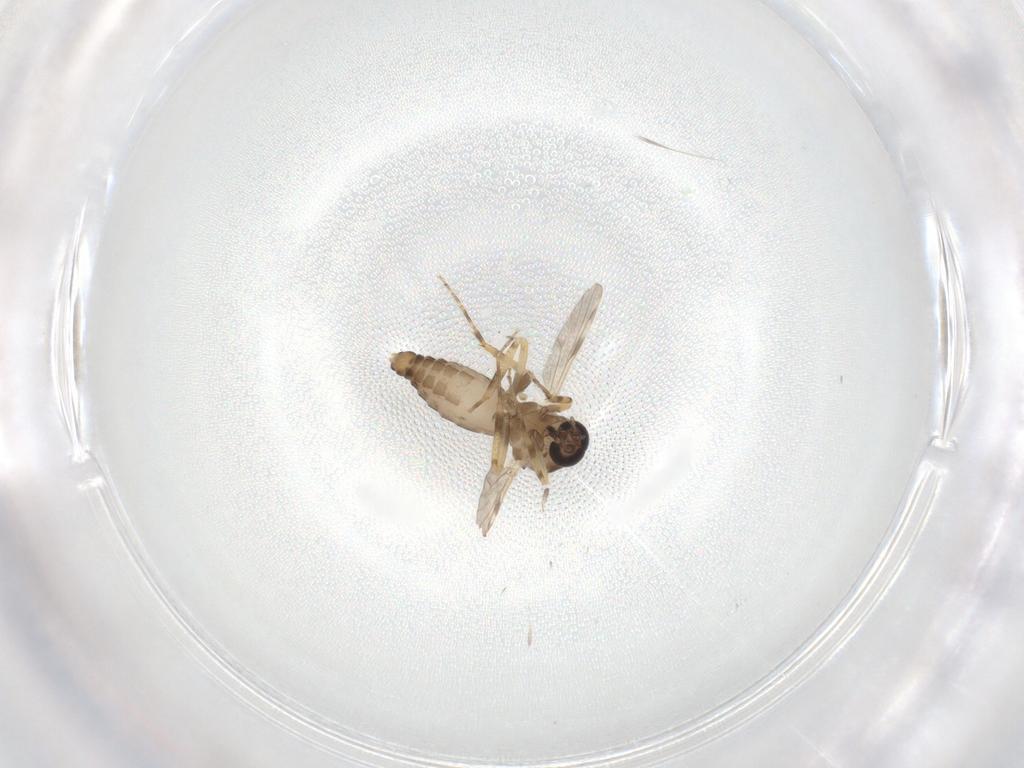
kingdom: Animalia
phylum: Arthropoda
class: Insecta
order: Diptera
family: Ceratopogonidae
